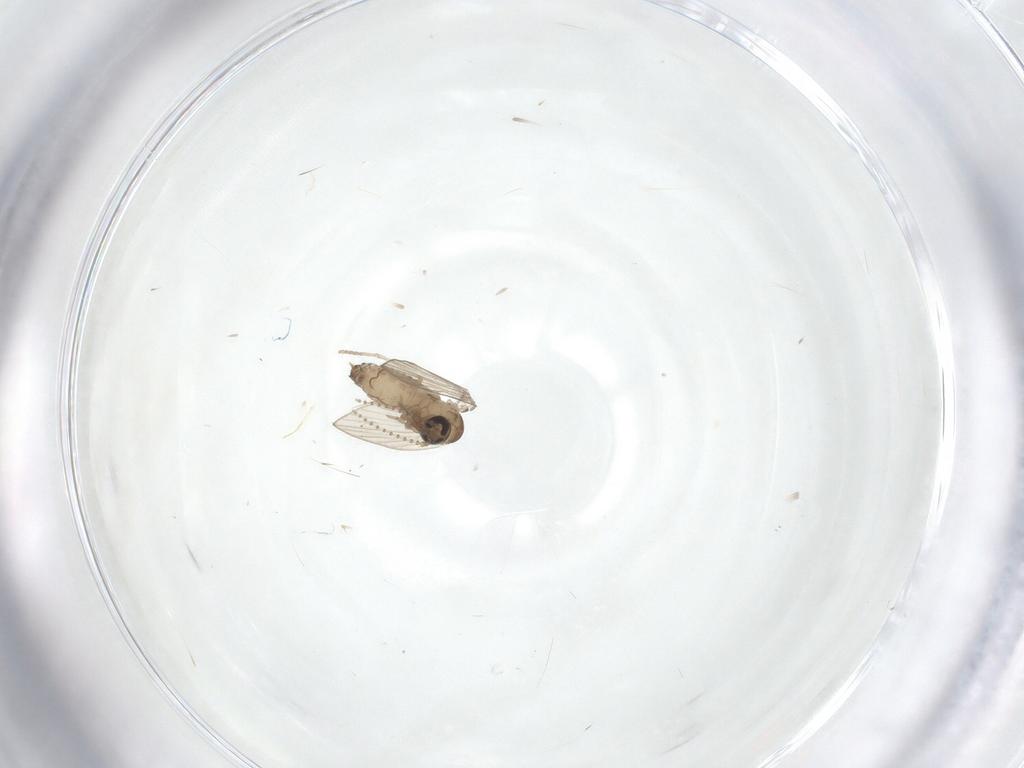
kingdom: Animalia
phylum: Arthropoda
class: Insecta
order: Diptera
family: Psychodidae
